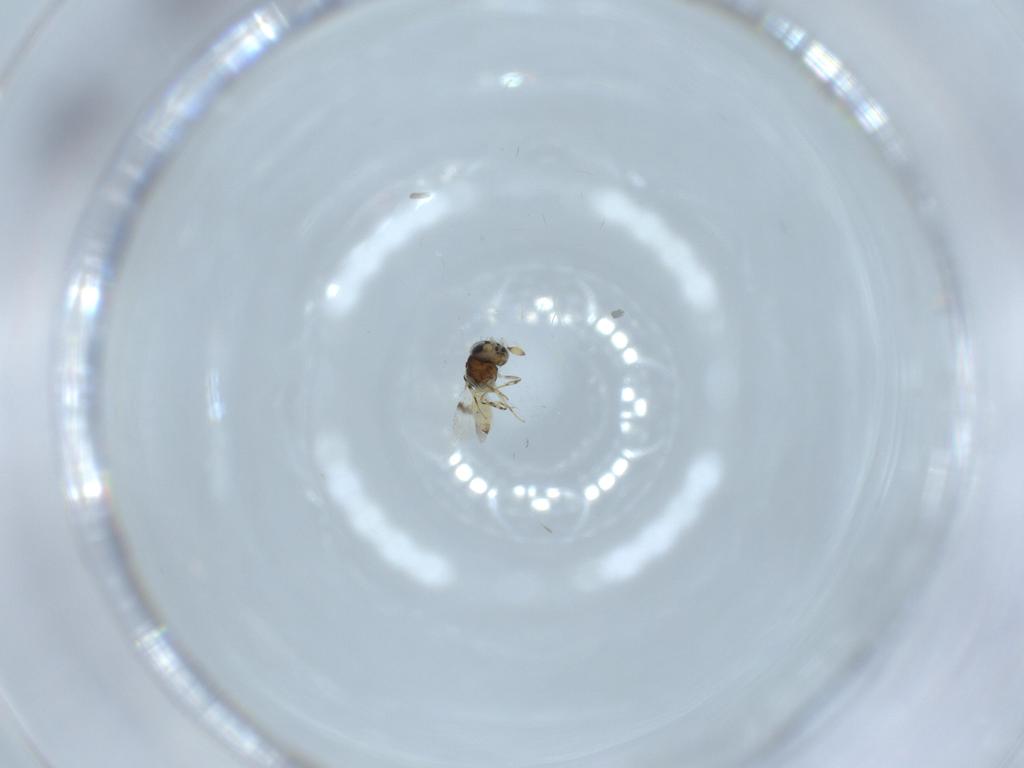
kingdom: Animalia
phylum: Arthropoda
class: Insecta
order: Hymenoptera
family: Scelionidae
